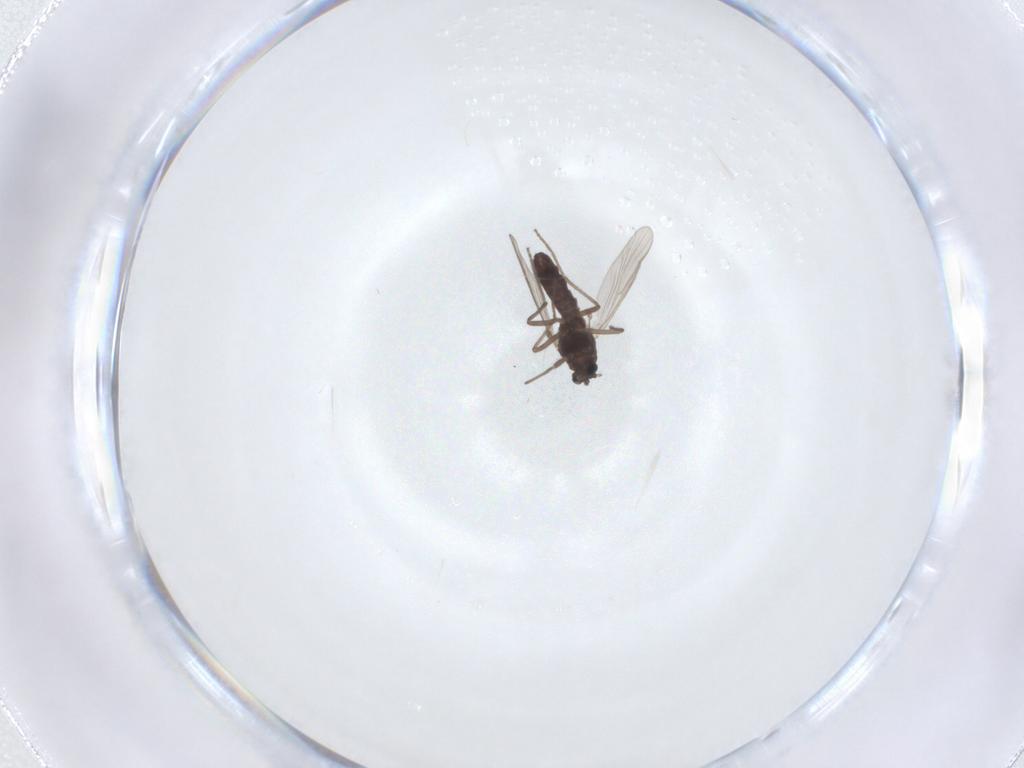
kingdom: Animalia
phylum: Arthropoda
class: Insecta
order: Diptera
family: Chironomidae
